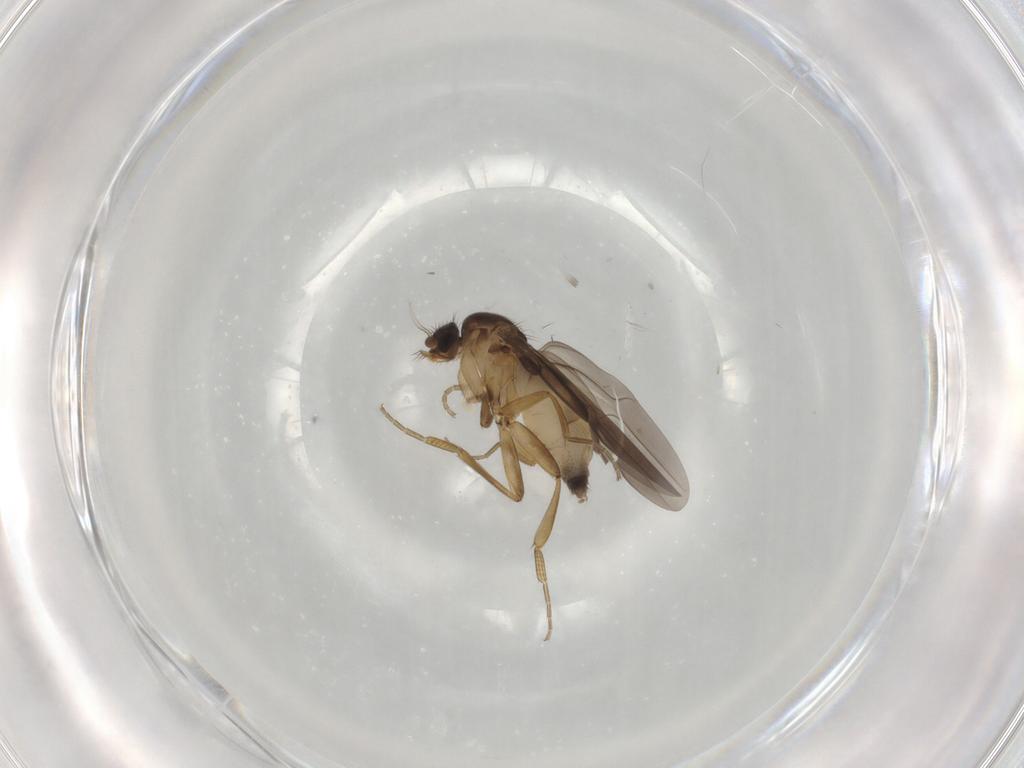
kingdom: Animalia
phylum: Arthropoda
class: Insecta
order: Diptera
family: Phoridae
